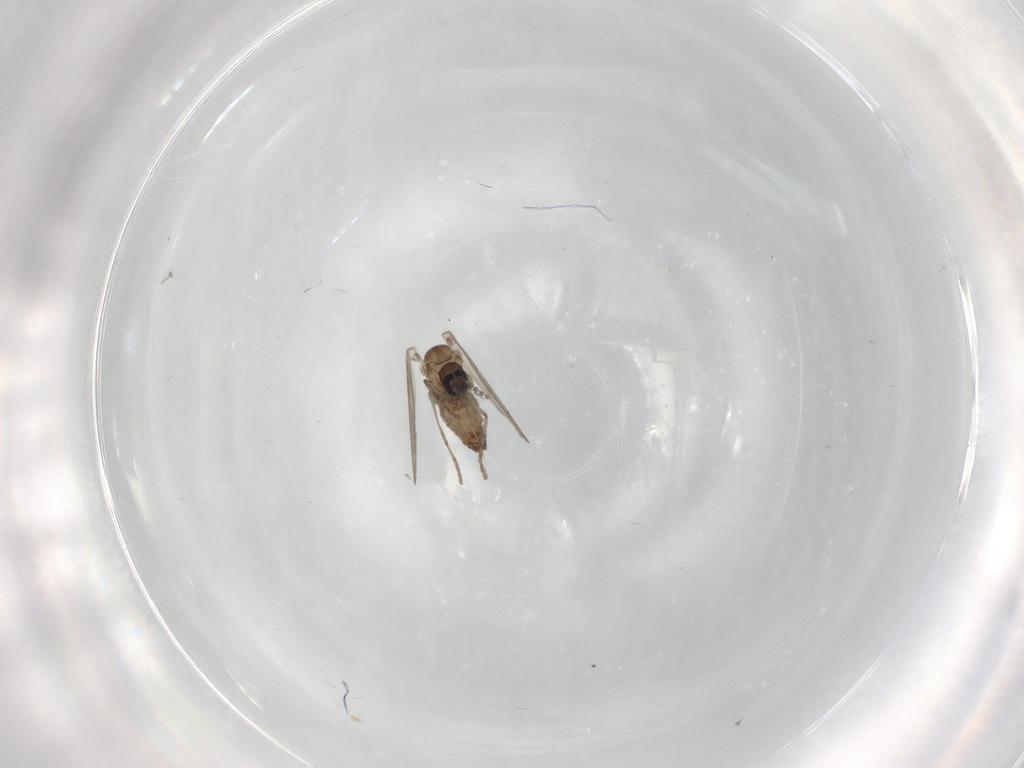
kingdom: Animalia
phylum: Arthropoda
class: Insecta
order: Diptera
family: Psychodidae
